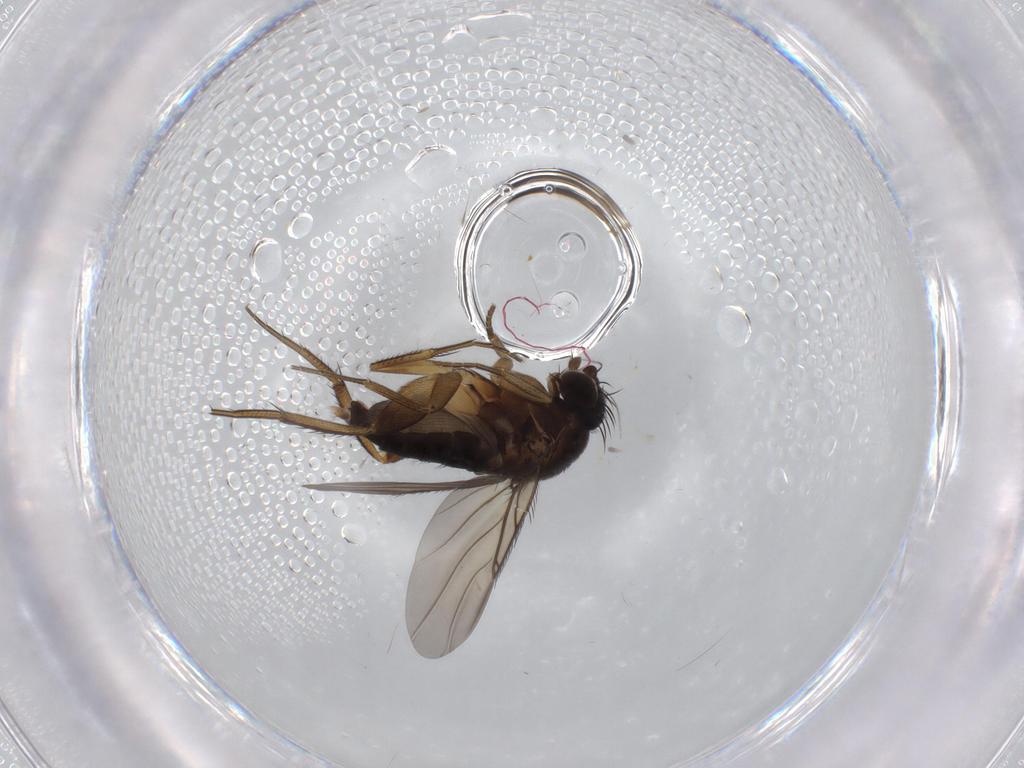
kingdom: Animalia
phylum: Arthropoda
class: Insecta
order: Diptera
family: Phoridae
